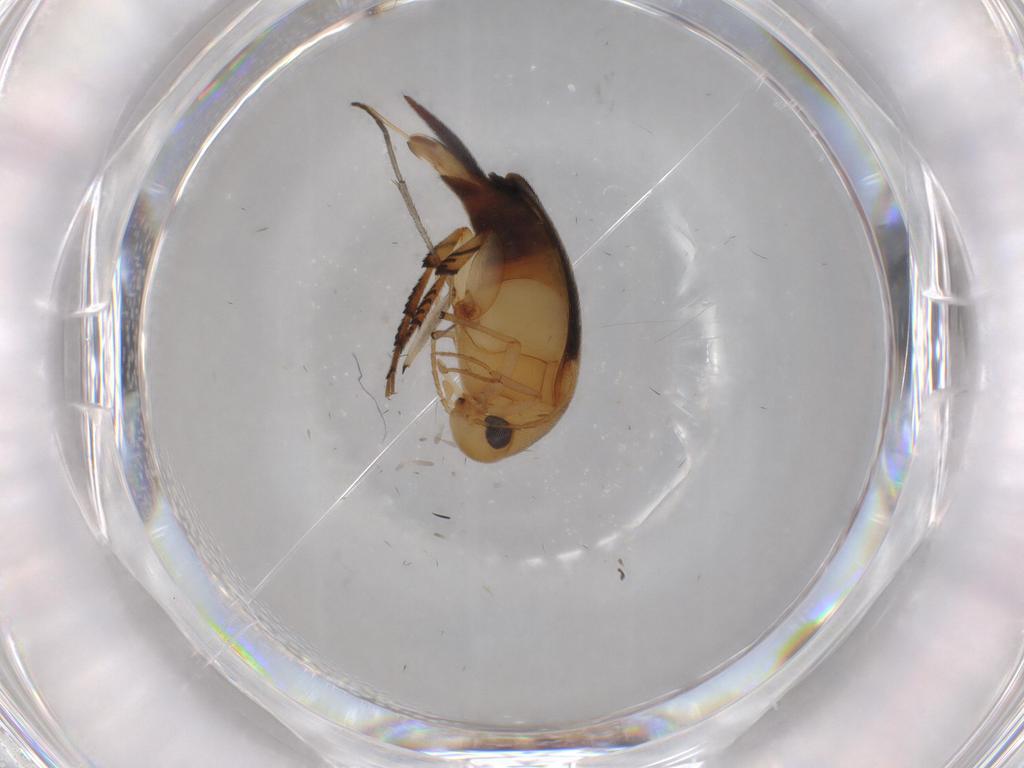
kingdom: Animalia
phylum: Arthropoda
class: Insecta
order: Coleoptera
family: Mordellidae
